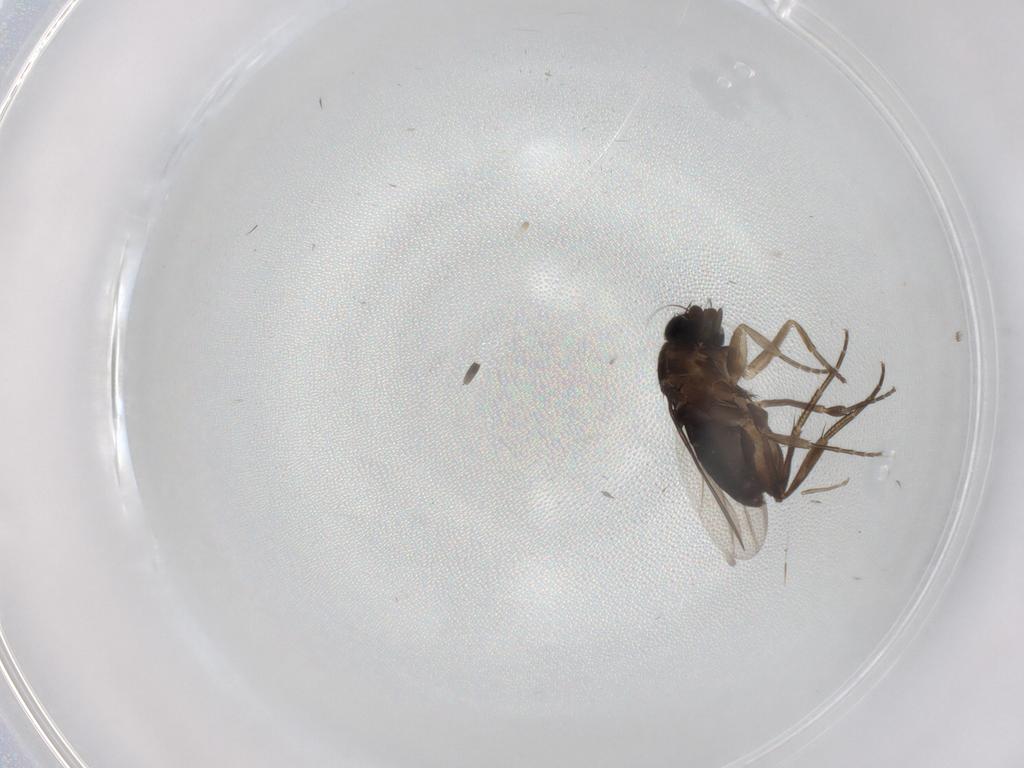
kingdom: Animalia
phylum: Arthropoda
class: Insecta
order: Diptera
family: Phoridae
